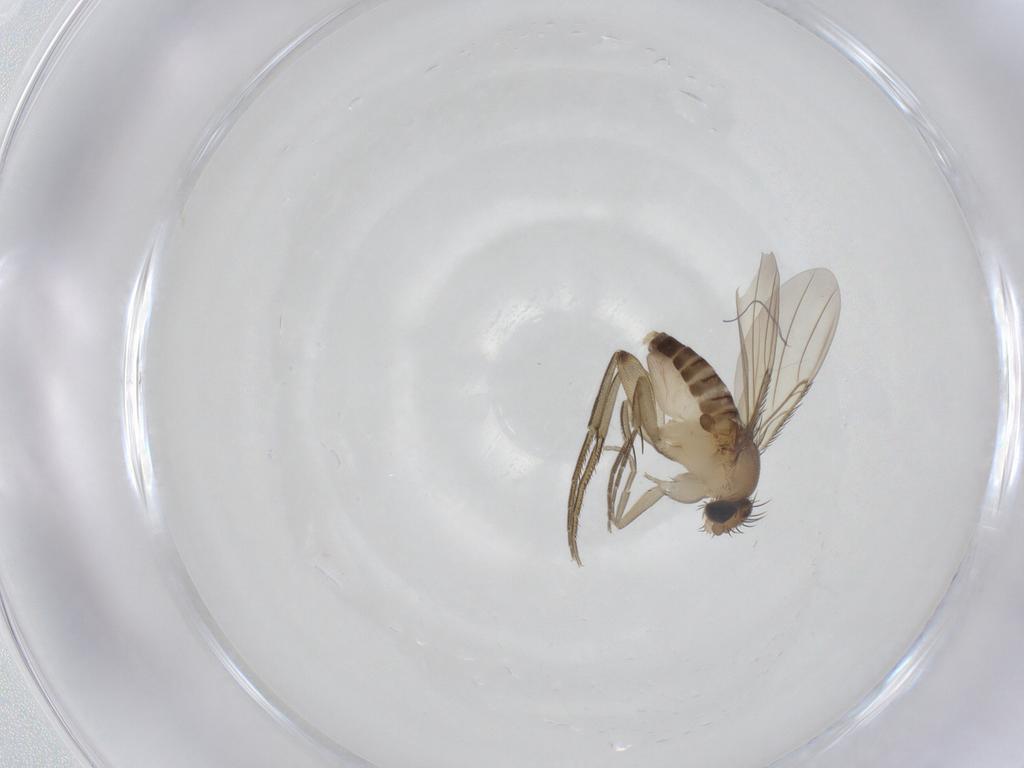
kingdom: Animalia
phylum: Arthropoda
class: Insecta
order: Diptera
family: Phoridae
